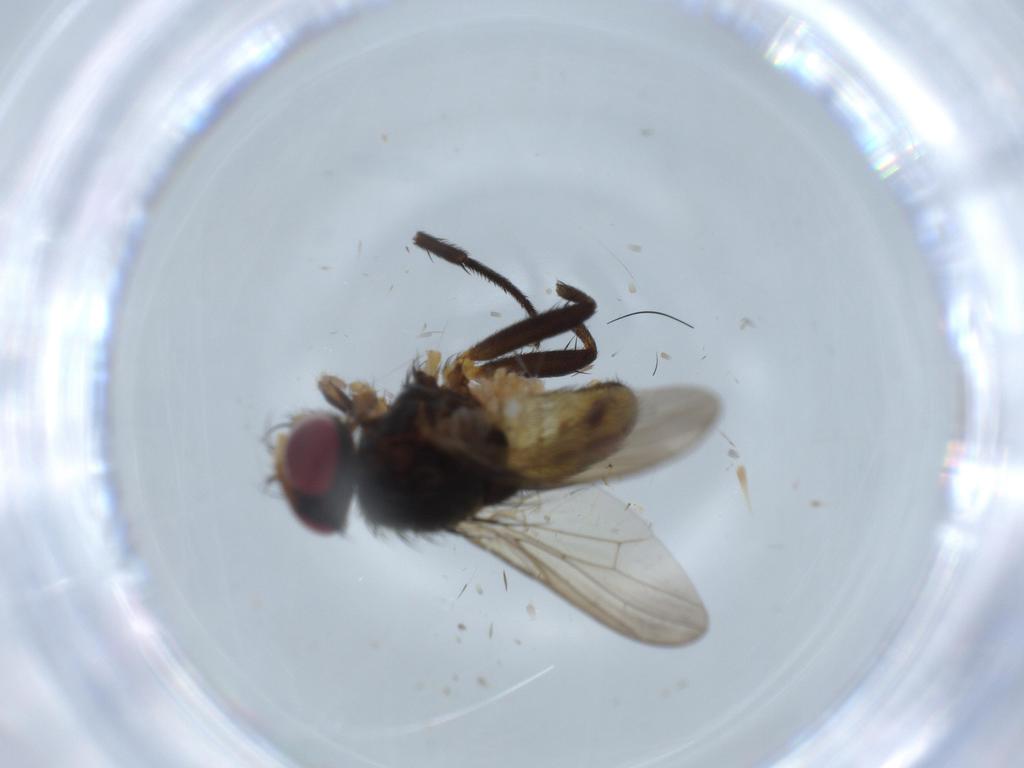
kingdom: Animalia
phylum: Arthropoda
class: Insecta
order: Diptera
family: Anthomyiidae
